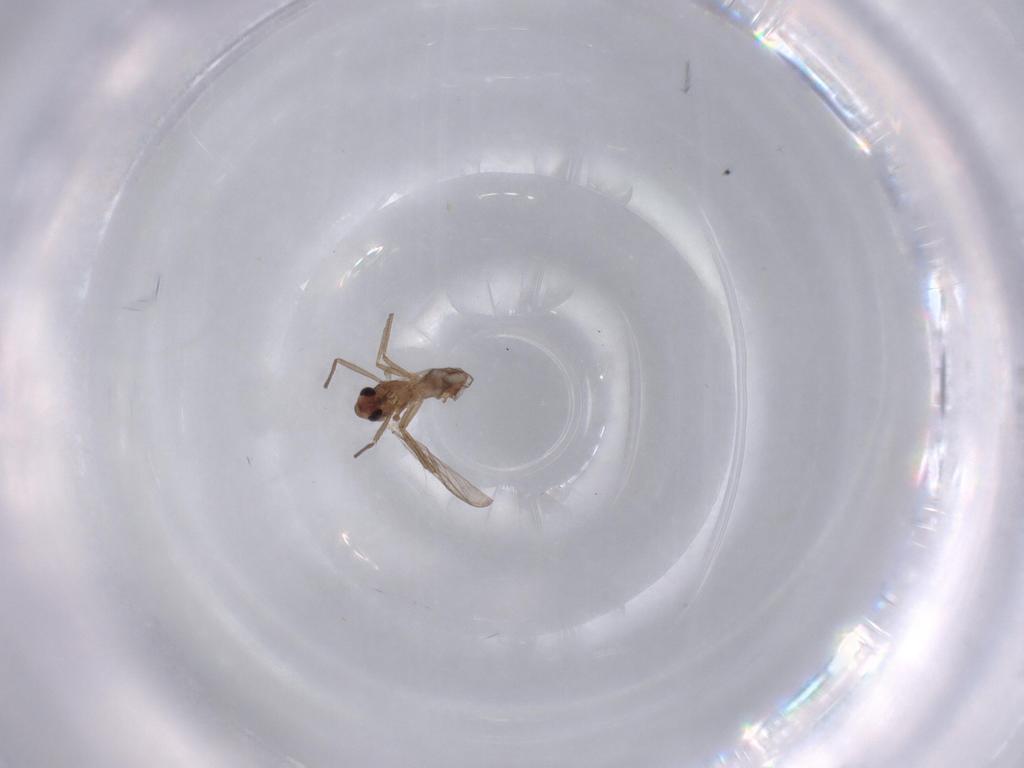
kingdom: Animalia
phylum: Arthropoda
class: Insecta
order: Diptera
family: Chironomidae
